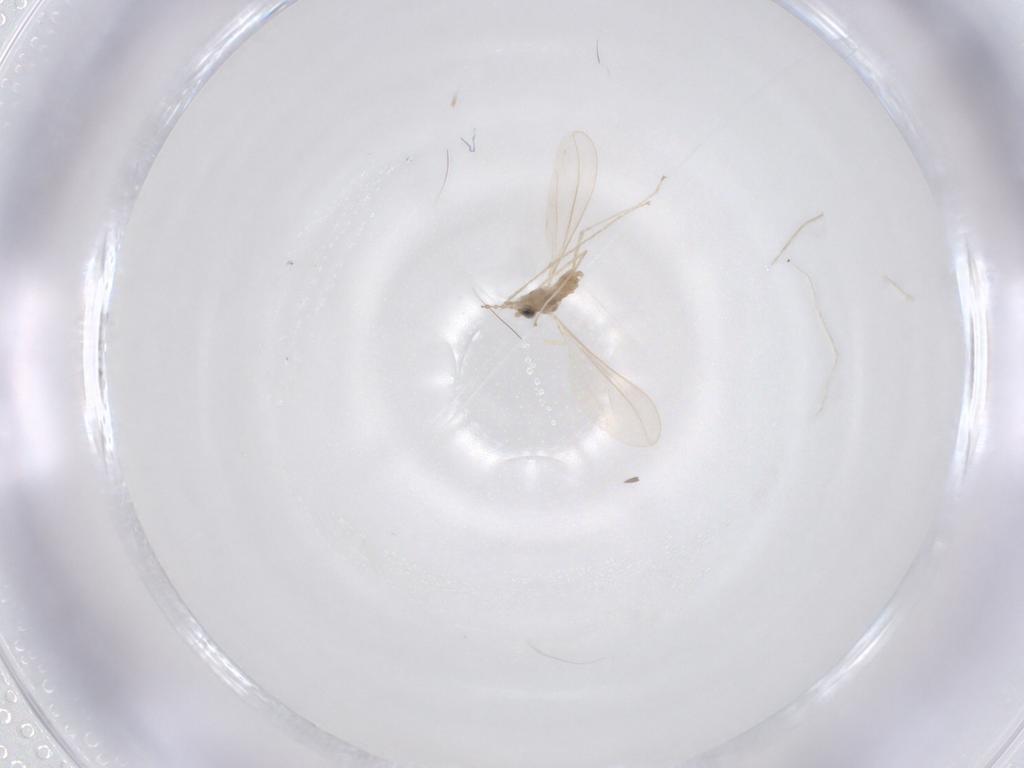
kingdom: Animalia
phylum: Arthropoda
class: Insecta
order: Diptera
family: Cecidomyiidae
